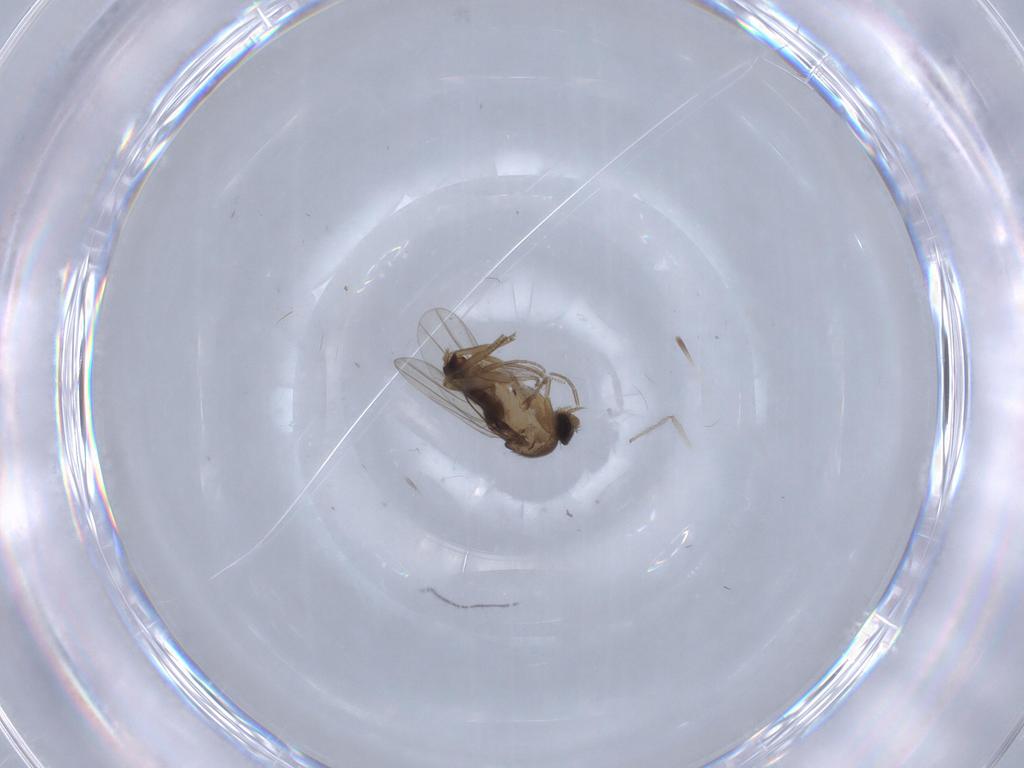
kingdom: Animalia
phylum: Arthropoda
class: Insecta
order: Diptera
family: Phoridae
